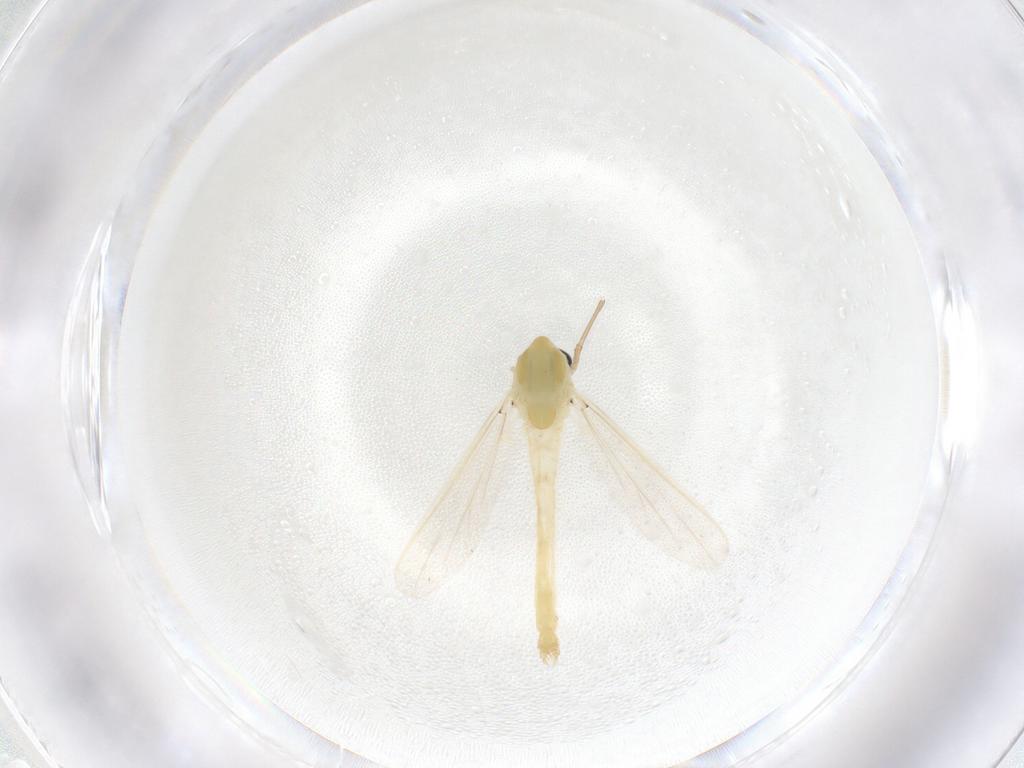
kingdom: Animalia
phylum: Arthropoda
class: Insecta
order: Diptera
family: Chironomidae
